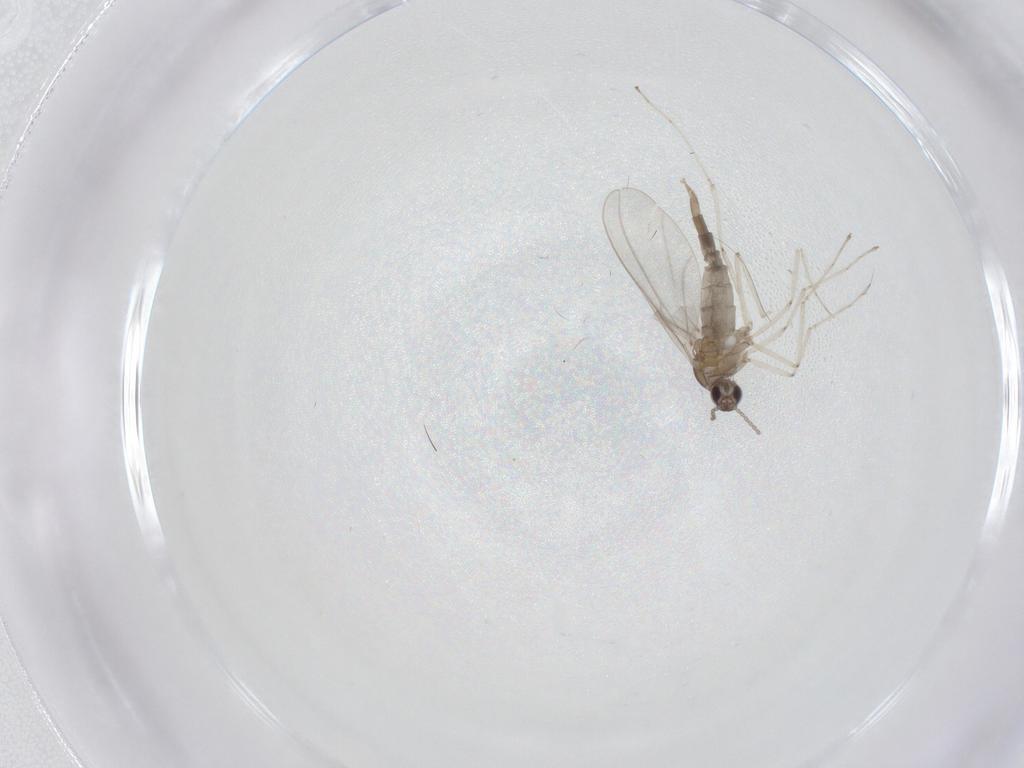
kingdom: Animalia
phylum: Arthropoda
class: Insecta
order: Diptera
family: Cecidomyiidae
